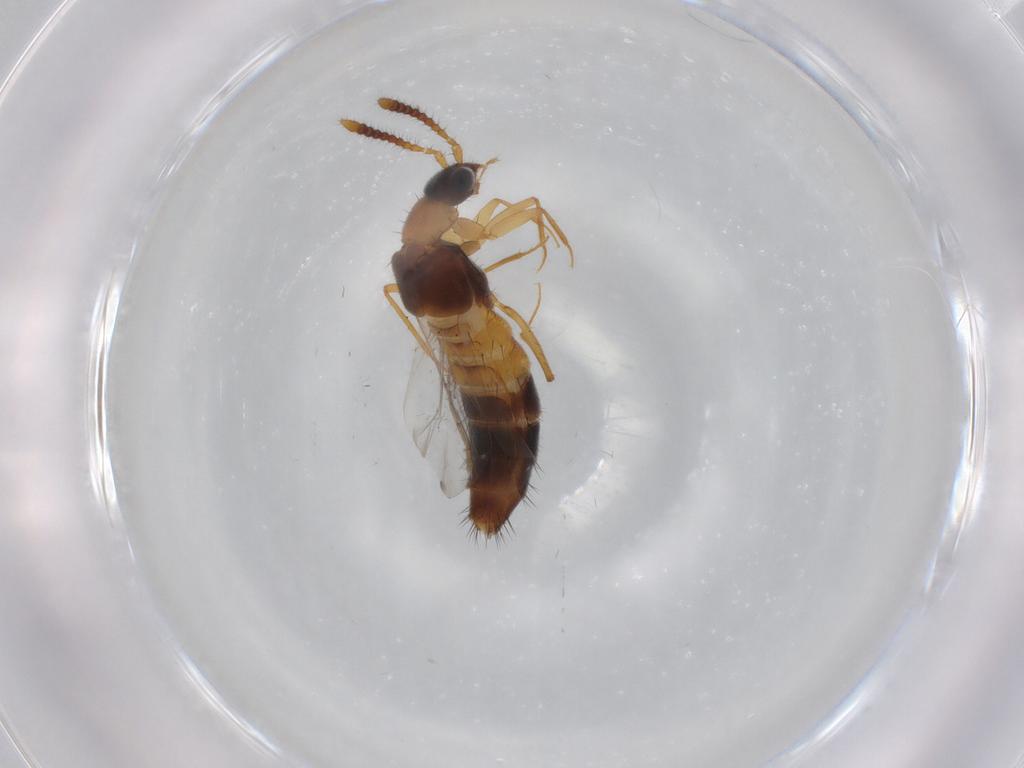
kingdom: Animalia
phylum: Arthropoda
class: Insecta
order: Coleoptera
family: Staphylinidae
